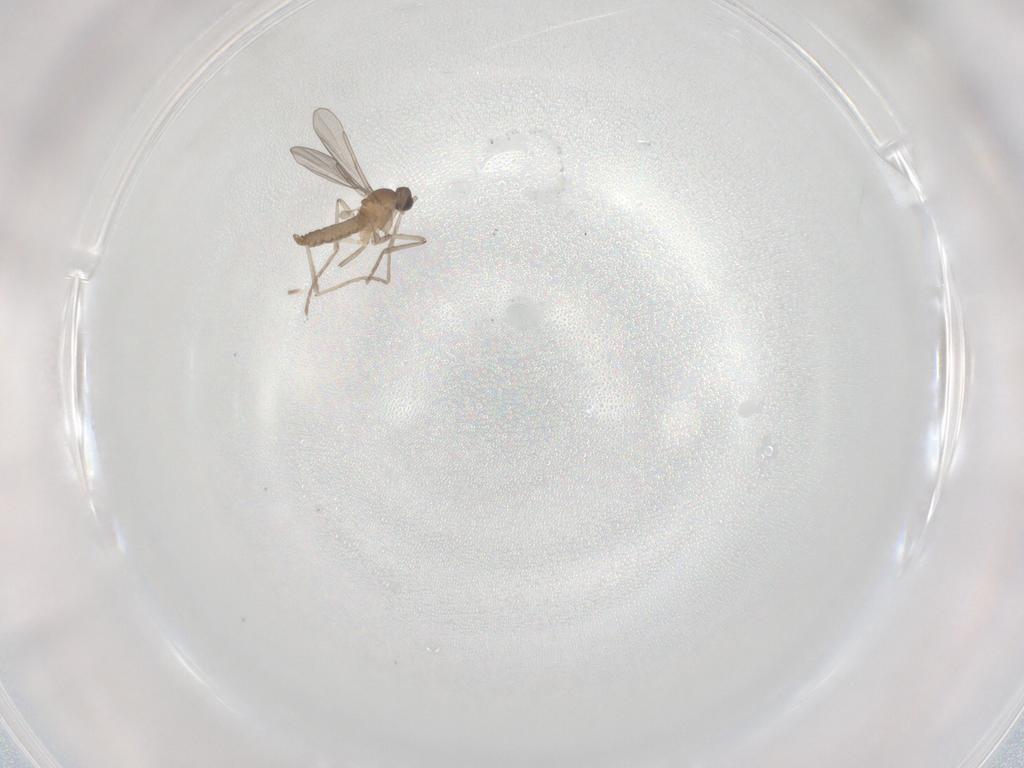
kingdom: Animalia
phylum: Arthropoda
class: Insecta
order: Diptera
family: Cecidomyiidae
